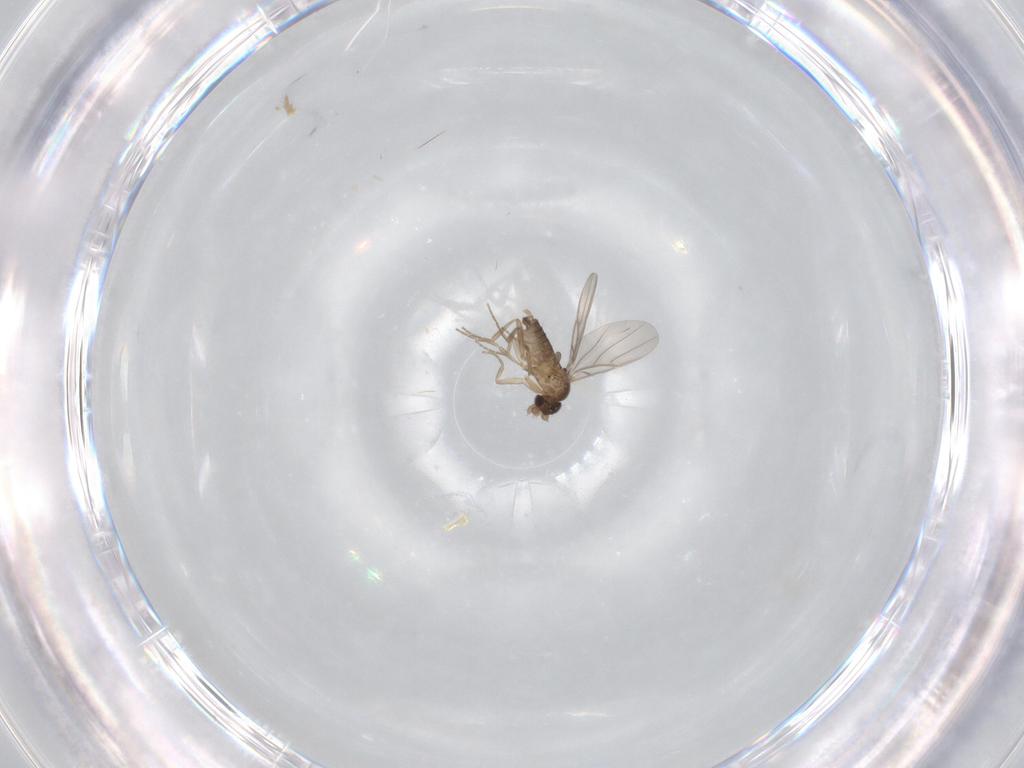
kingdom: Animalia
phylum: Arthropoda
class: Insecta
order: Diptera
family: Phoridae
